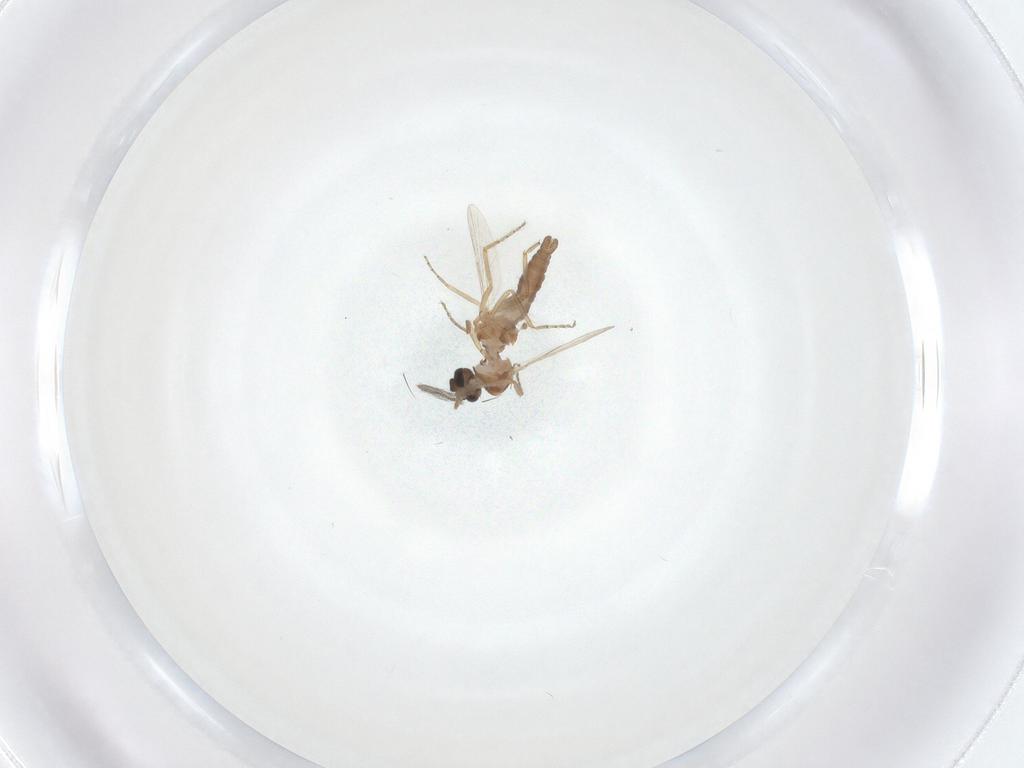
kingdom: Animalia
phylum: Arthropoda
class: Insecta
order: Diptera
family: Ceratopogonidae
